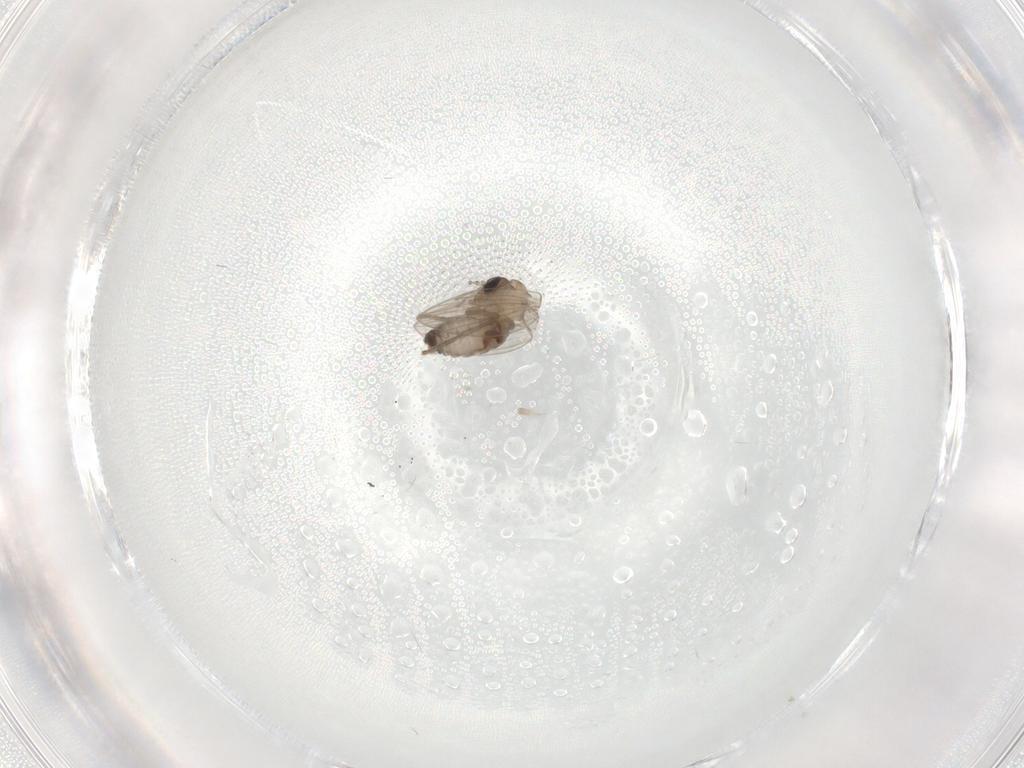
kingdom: Animalia
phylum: Arthropoda
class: Insecta
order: Diptera
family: Psychodidae
